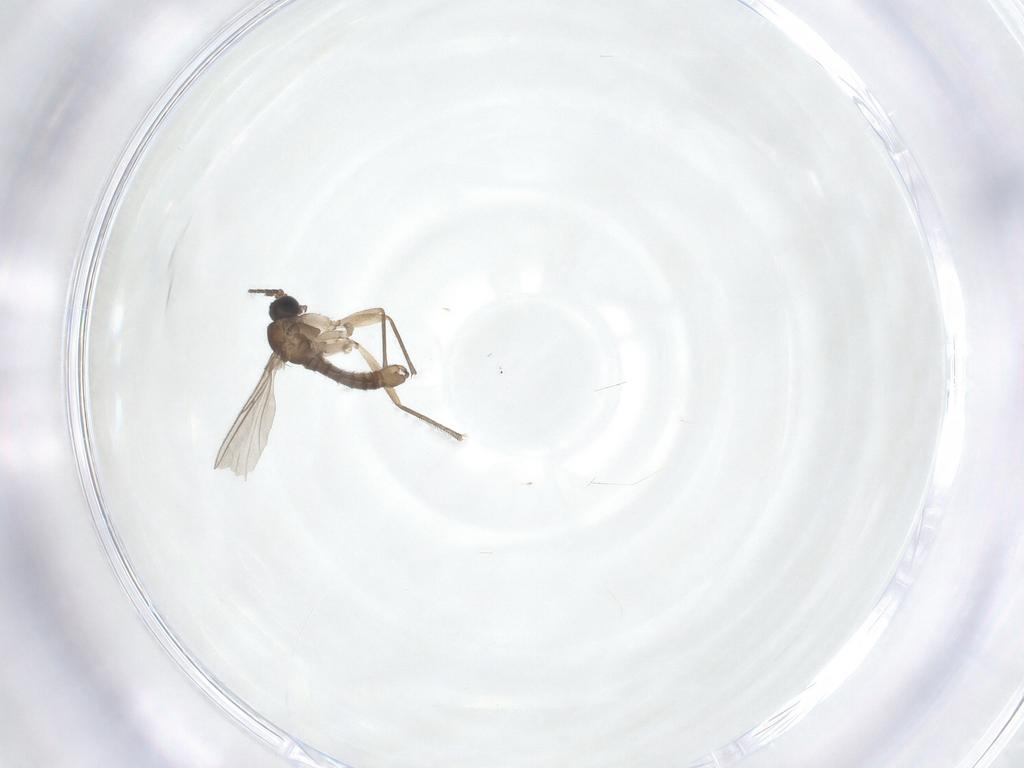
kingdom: Animalia
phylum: Arthropoda
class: Insecta
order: Diptera
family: Sciaridae
